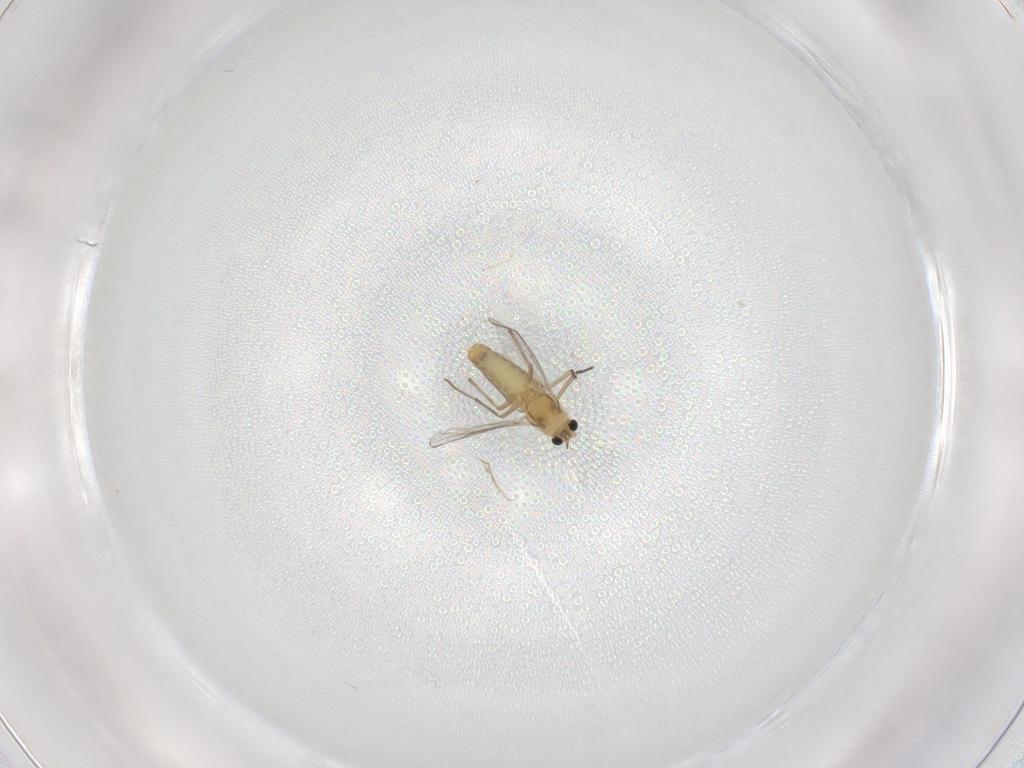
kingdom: Animalia
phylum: Arthropoda
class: Insecta
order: Diptera
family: Chironomidae
